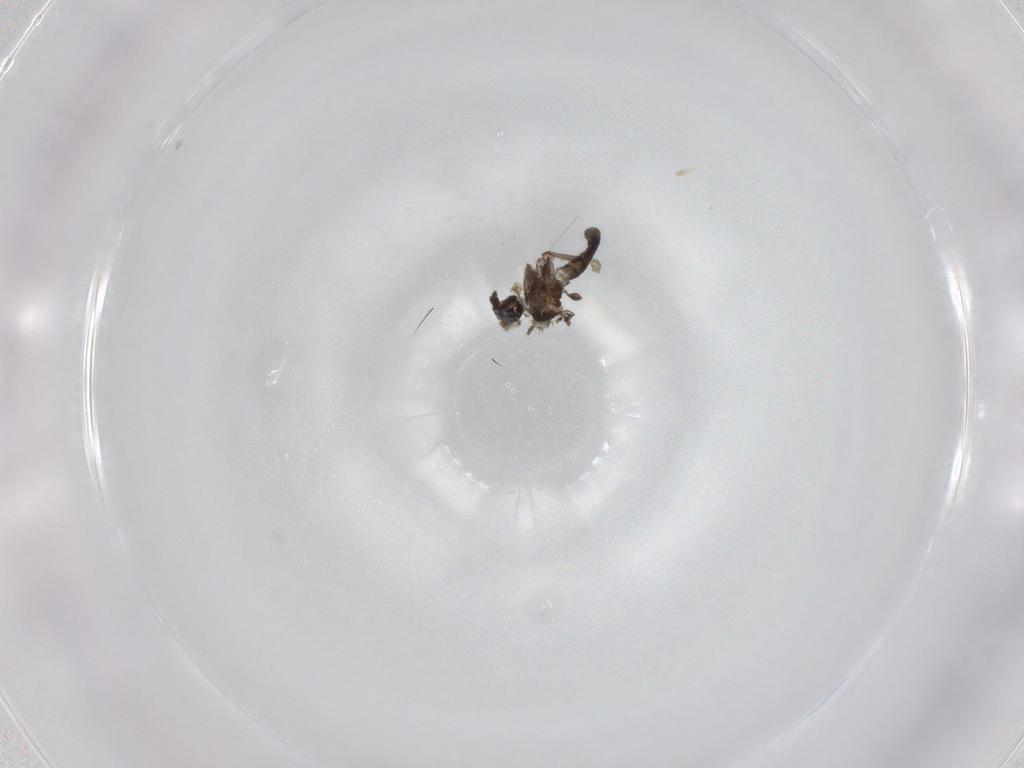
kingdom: Animalia
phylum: Arthropoda
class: Insecta
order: Diptera
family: Drosophilidae
